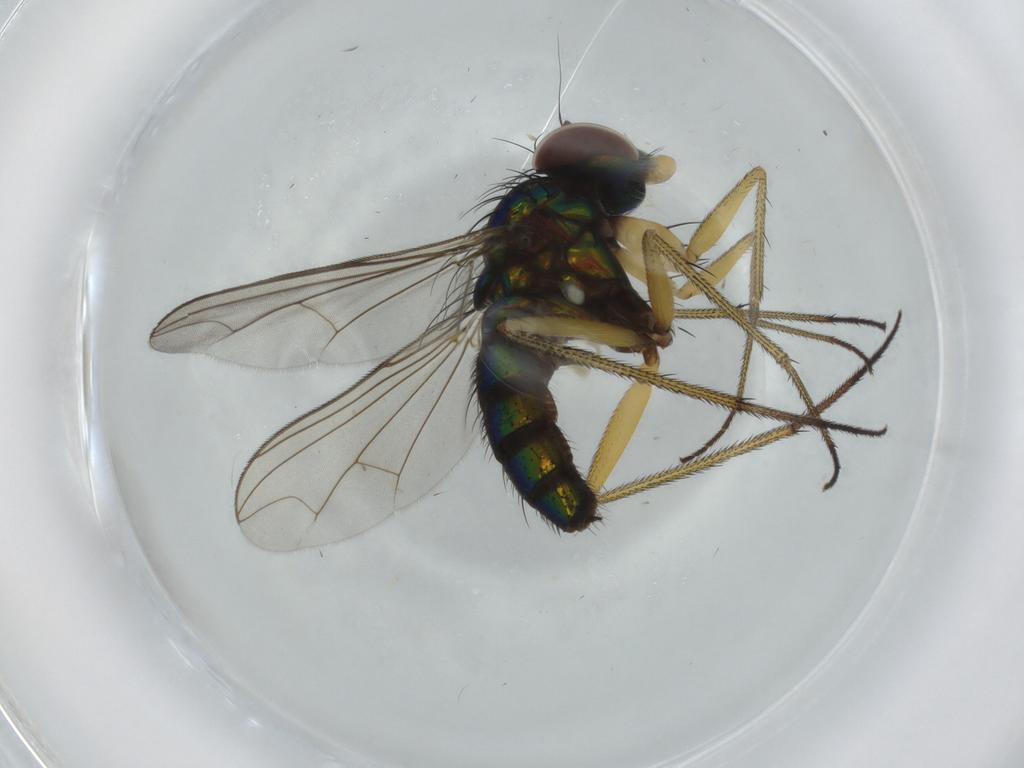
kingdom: Animalia
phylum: Arthropoda
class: Insecta
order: Diptera
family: Dolichopodidae
